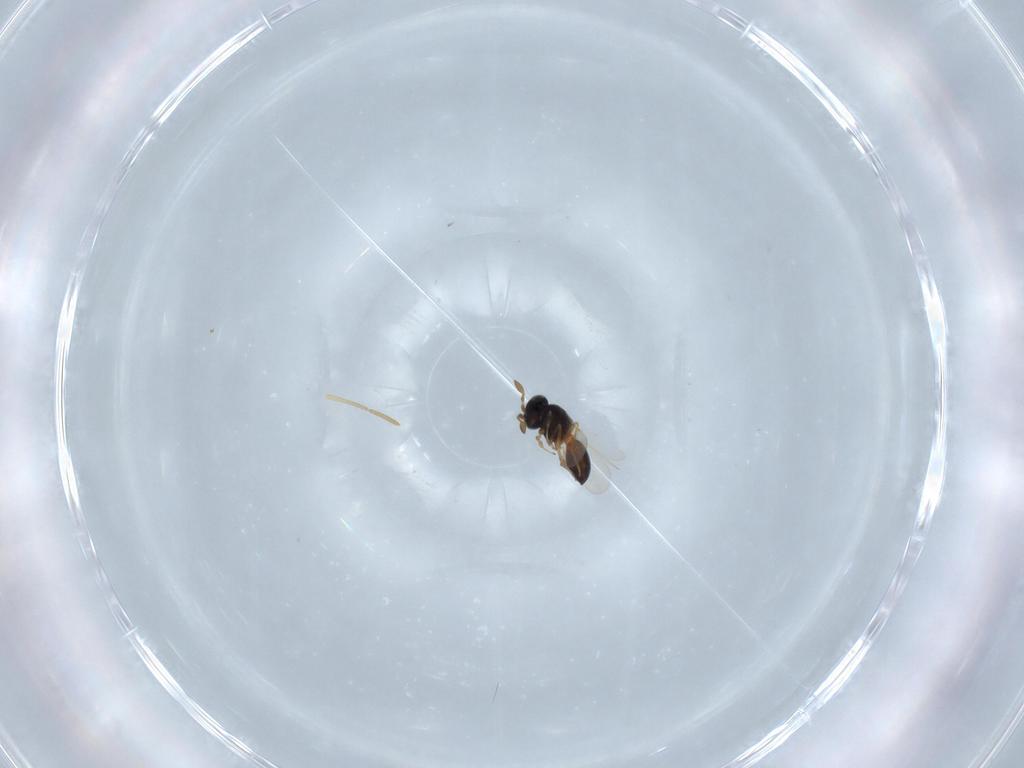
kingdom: Animalia
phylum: Arthropoda
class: Insecta
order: Hymenoptera
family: Scelionidae
